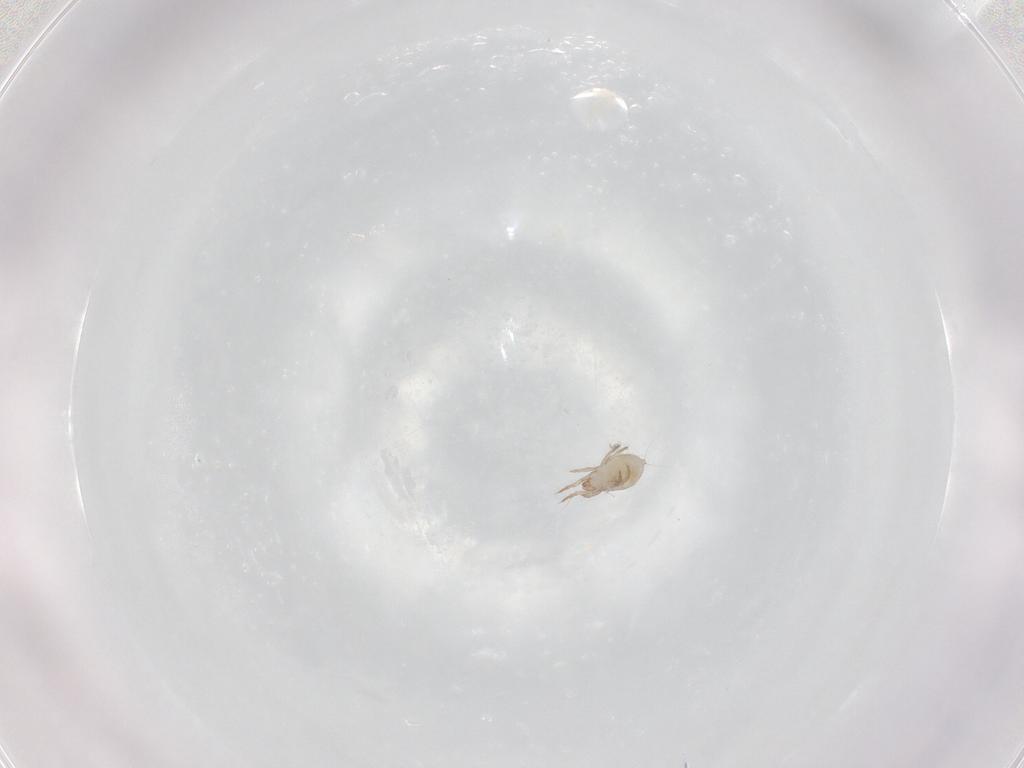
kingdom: Animalia
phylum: Arthropoda
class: Arachnida
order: Sarcoptiformes
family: Ceratoppiidae
